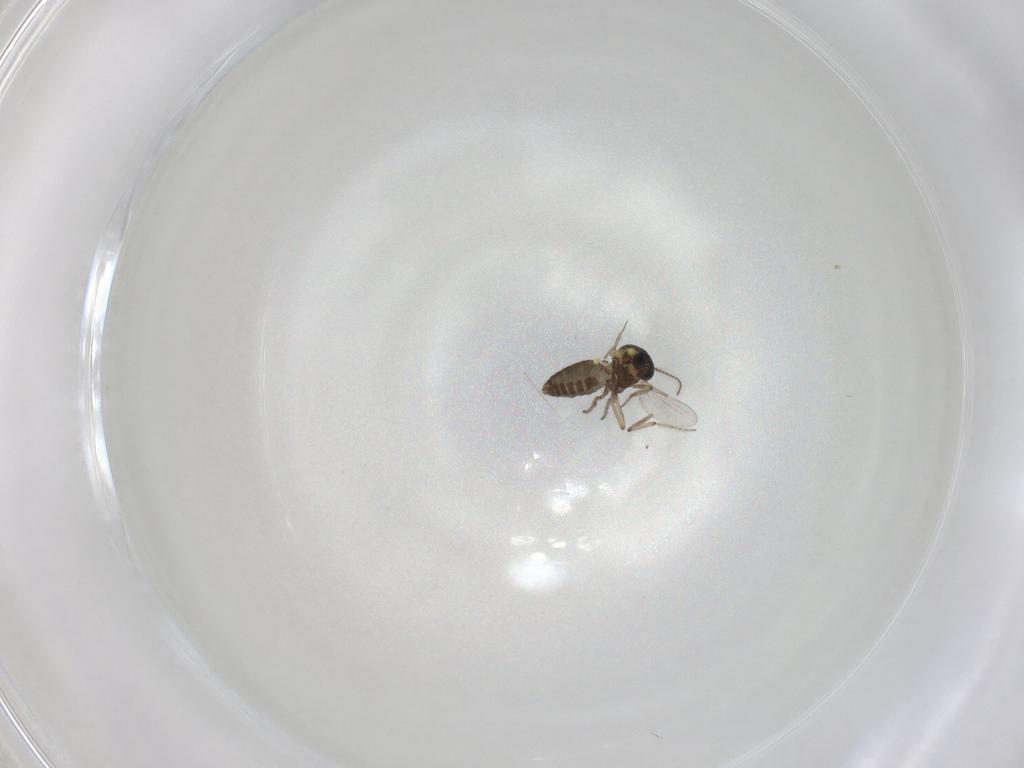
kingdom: Animalia
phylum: Arthropoda
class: Insecta
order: Diptera
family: Ceratopogonidae
